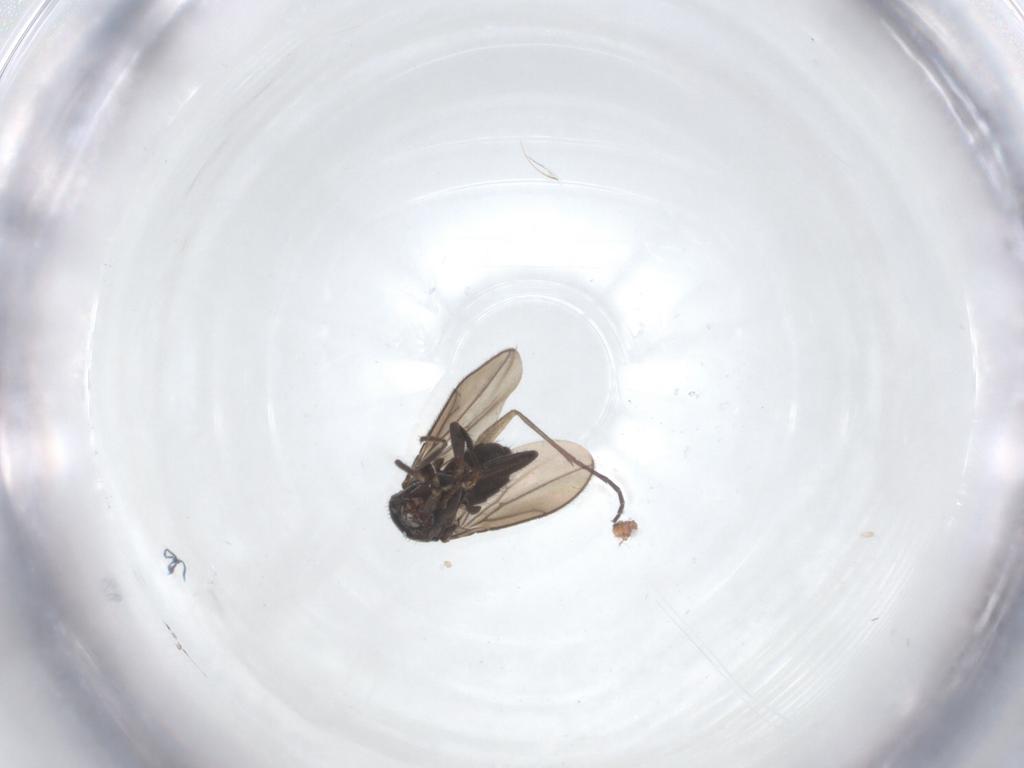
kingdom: Animalia
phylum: Arthropoda
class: Insecta
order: Diptera
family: Sphaeroceridae
